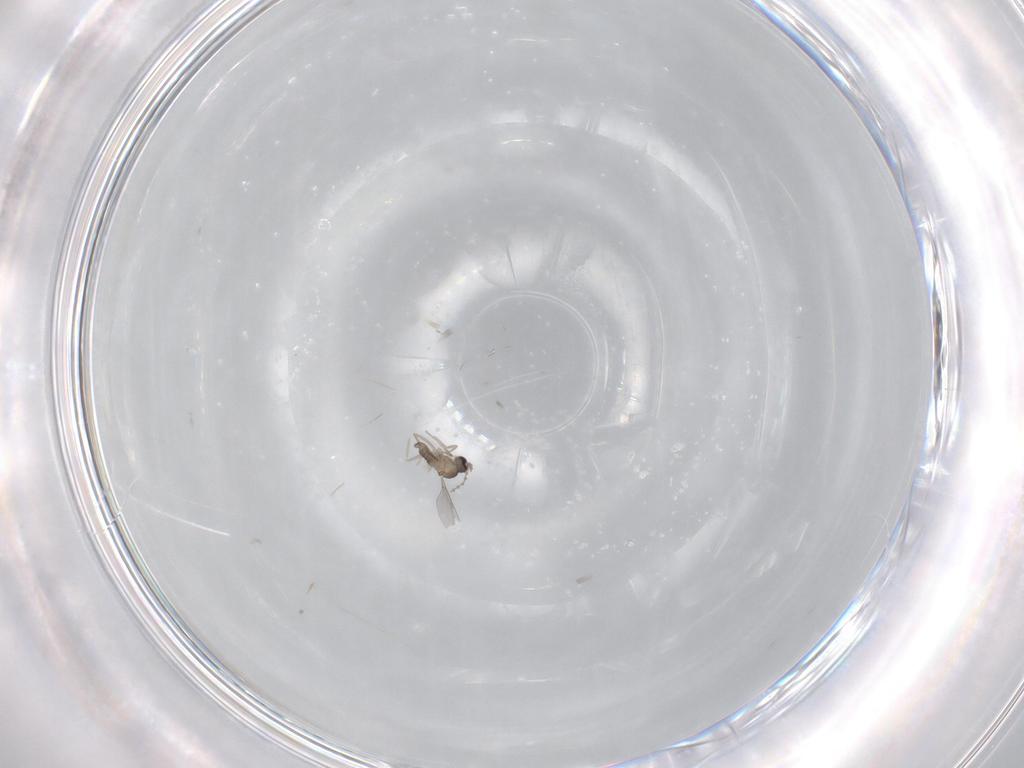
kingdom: Animalia
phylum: Arthropoda
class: Insecta
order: Diptera
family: Cecidomyiidae
